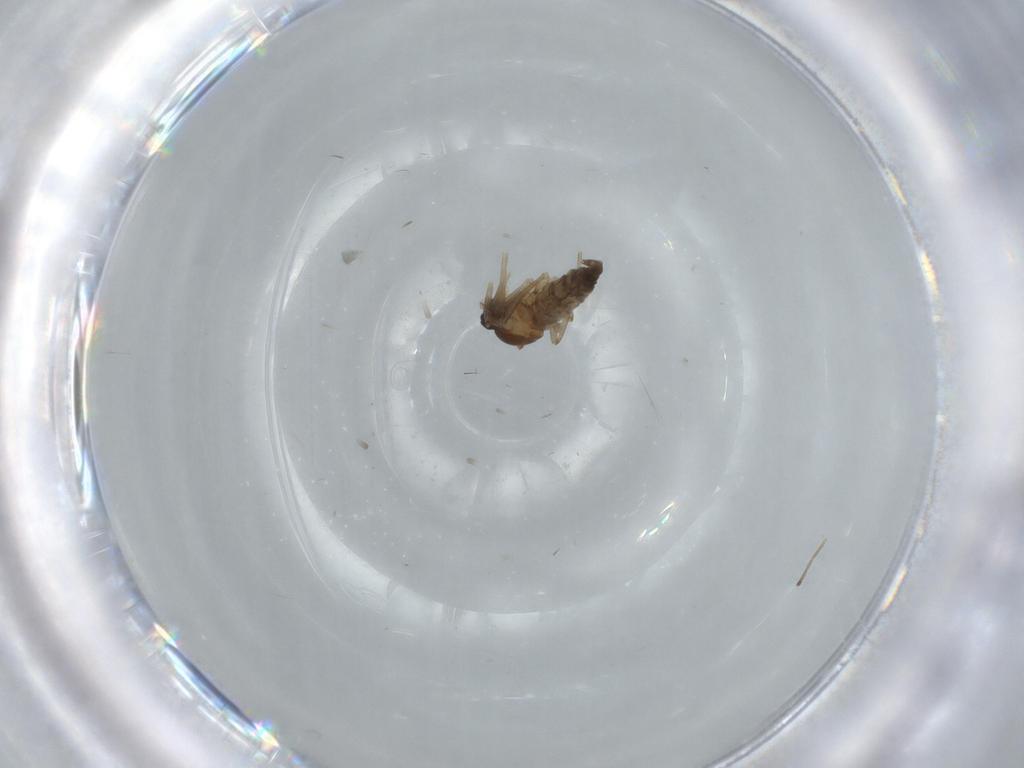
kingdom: Animalia
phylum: Arthropoda
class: Insecta
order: Diptera
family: Cecidomyiidae
